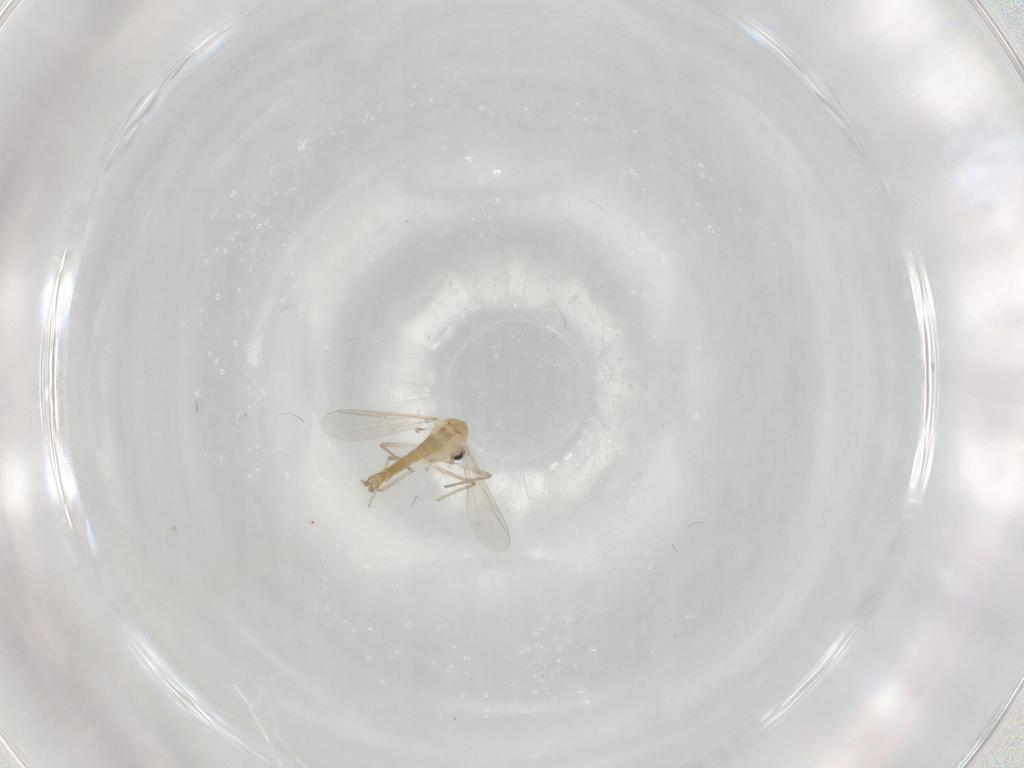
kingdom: Animalia
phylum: Arthropoda
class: Insecta
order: Diptera
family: Chironomidae
